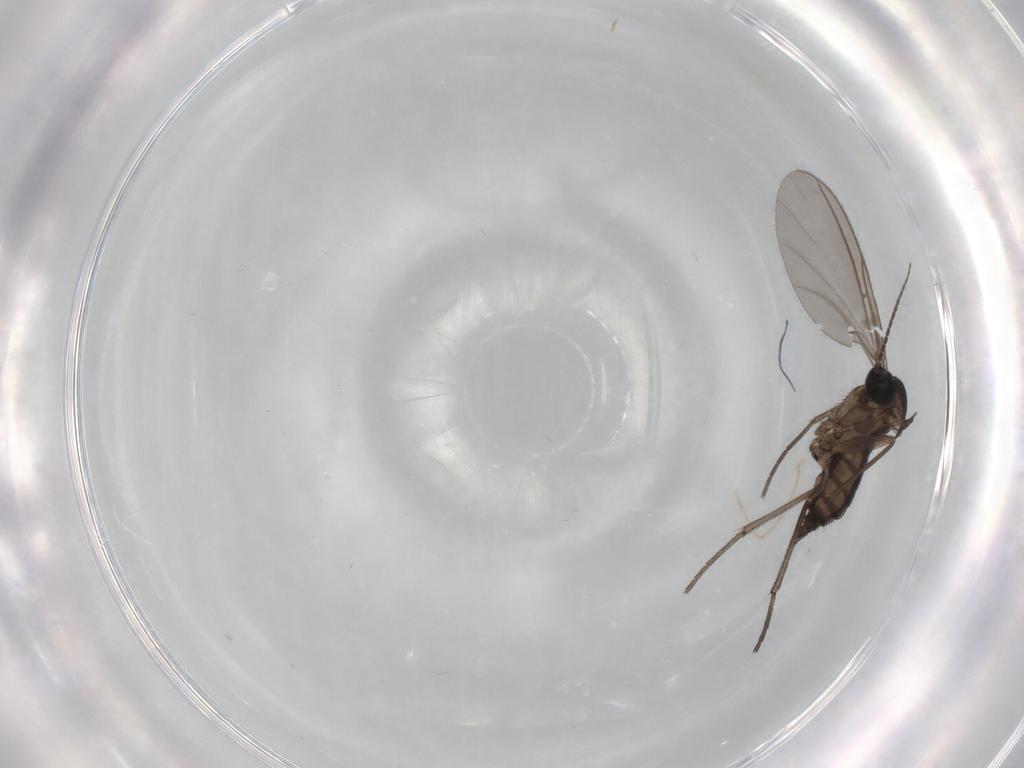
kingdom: Animalia
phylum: Arthropoda
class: Insecta
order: Diptera
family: Sciaridae
